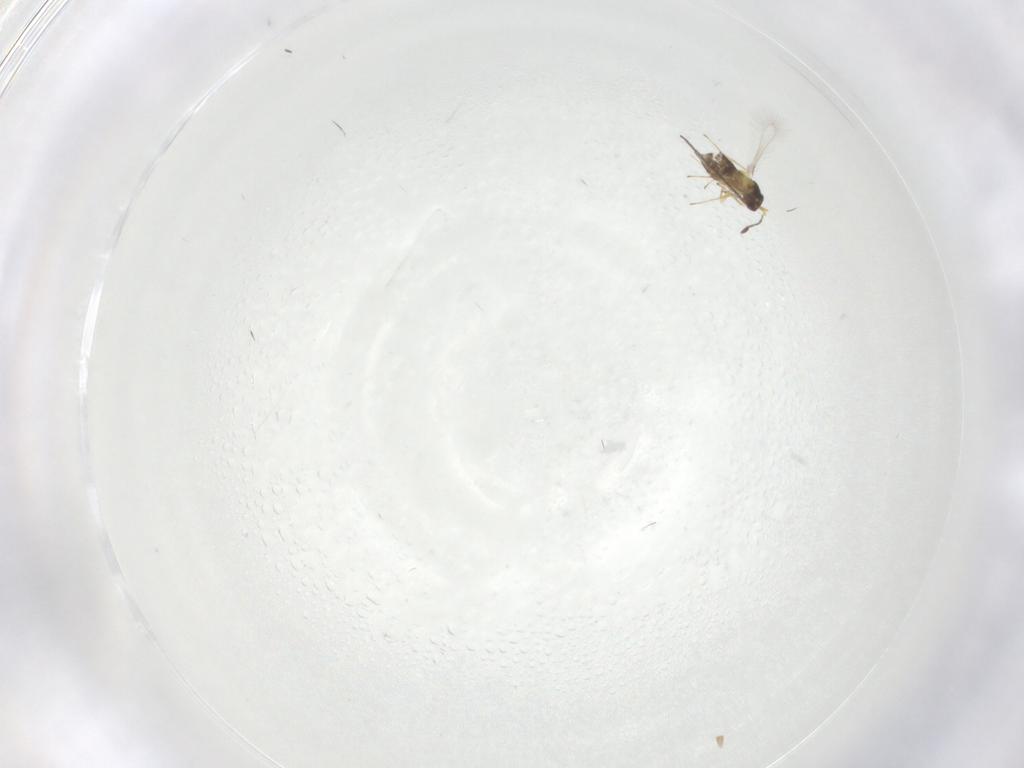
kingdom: Animalia
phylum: Arthropoda
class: Insecta
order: Hymenoptera
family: Mymaridae
